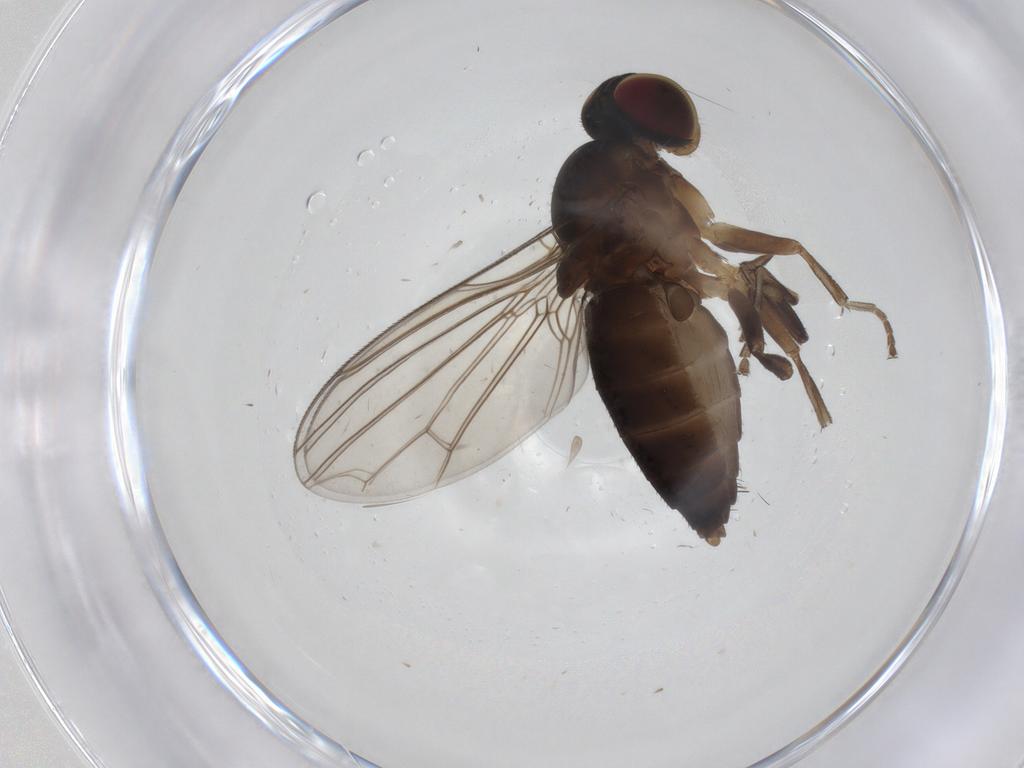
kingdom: Animalia
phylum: Arthropoda
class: Insecta
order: Diptera
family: Platypezidae
